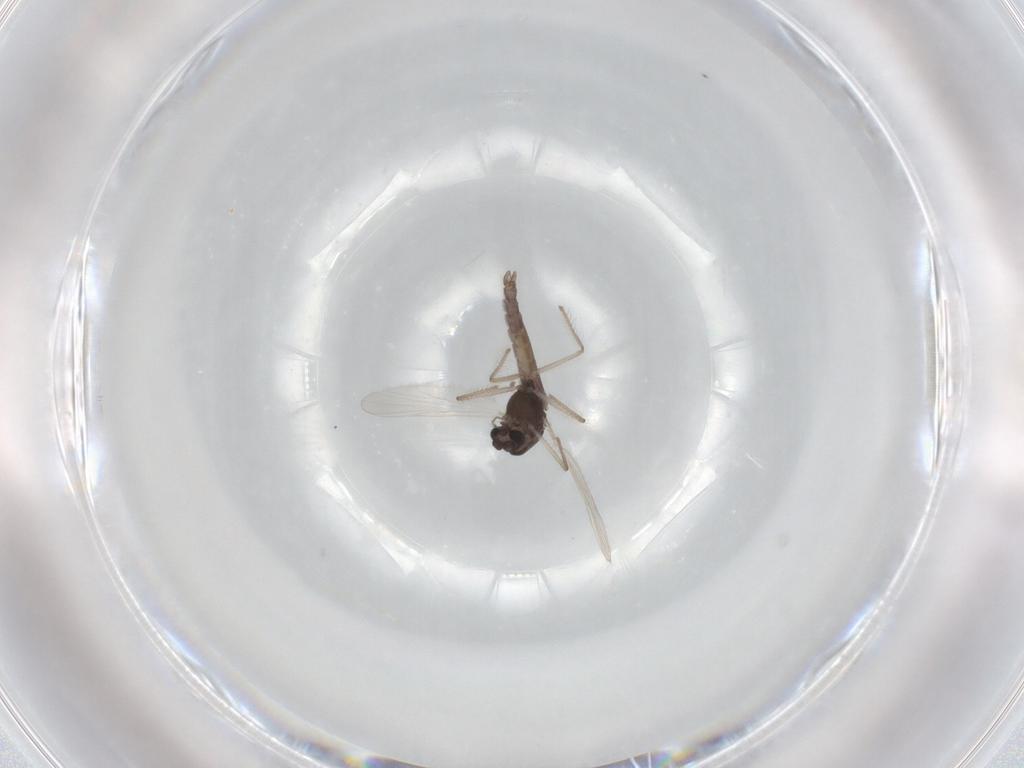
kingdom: Animalia
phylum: Arthropoda
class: Insecta
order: Diptera
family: Chironomidae
